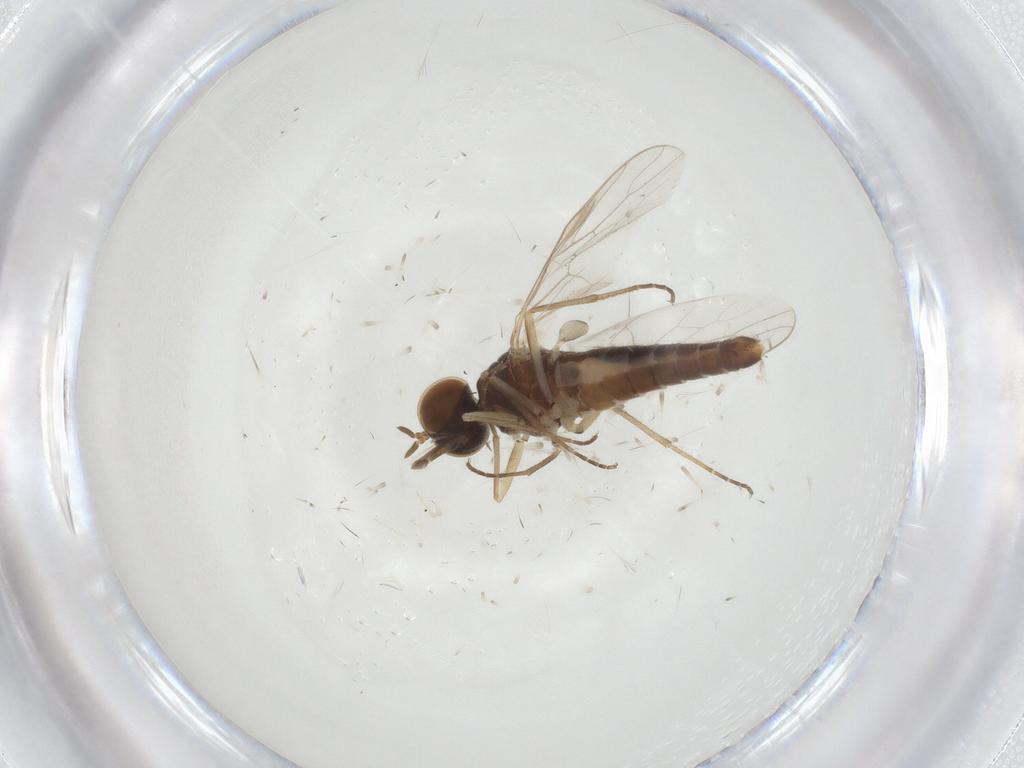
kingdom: Animalia
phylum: Arthropoda
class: Insecta
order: Diptera
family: Scenopinidae
